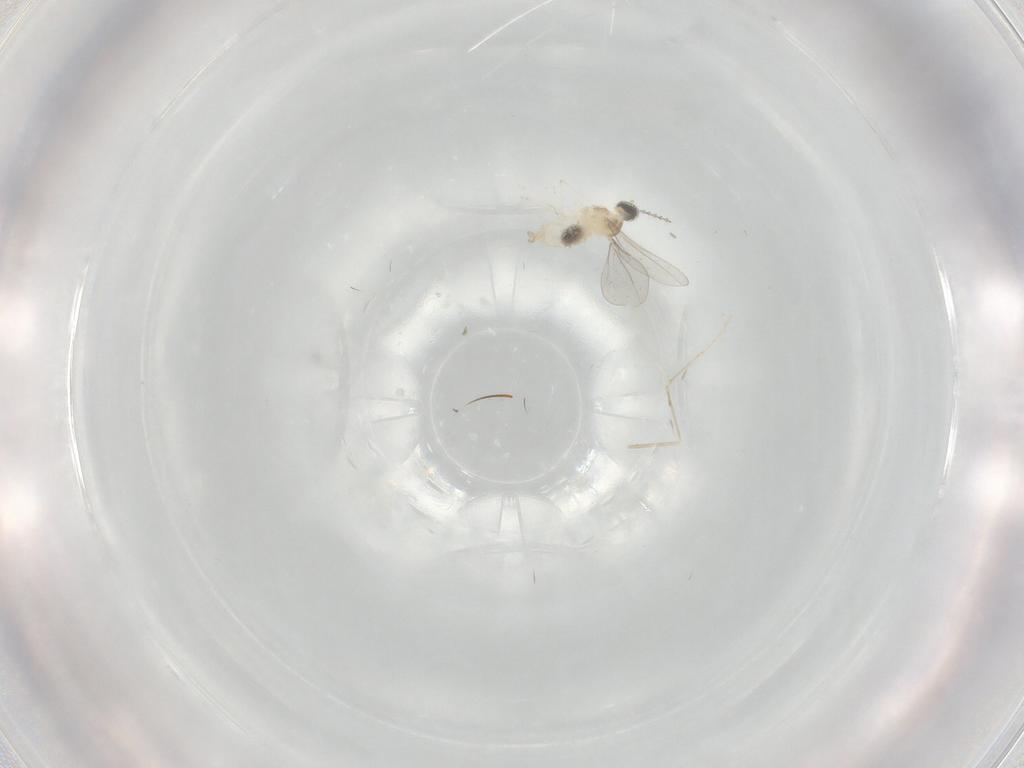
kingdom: Animalia
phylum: Arthropoda
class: Insecta
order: Diptera
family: Cecidomyiidae
